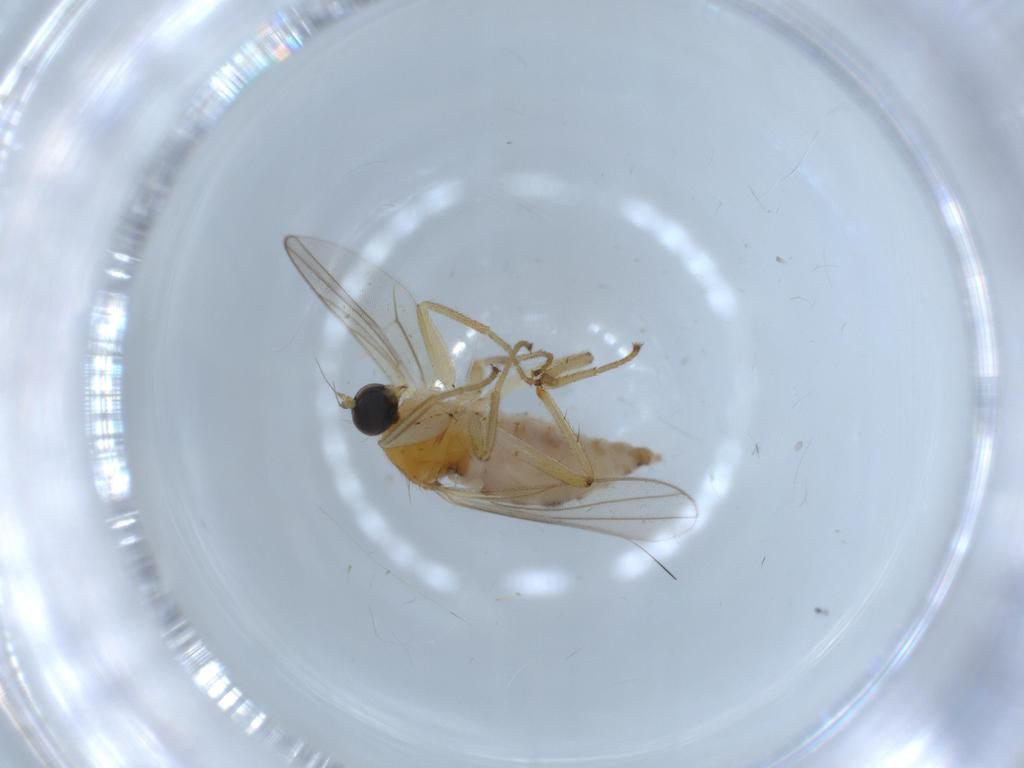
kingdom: Animalia
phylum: Arthropoda
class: Insecta
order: Diptera
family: Hybotidae
